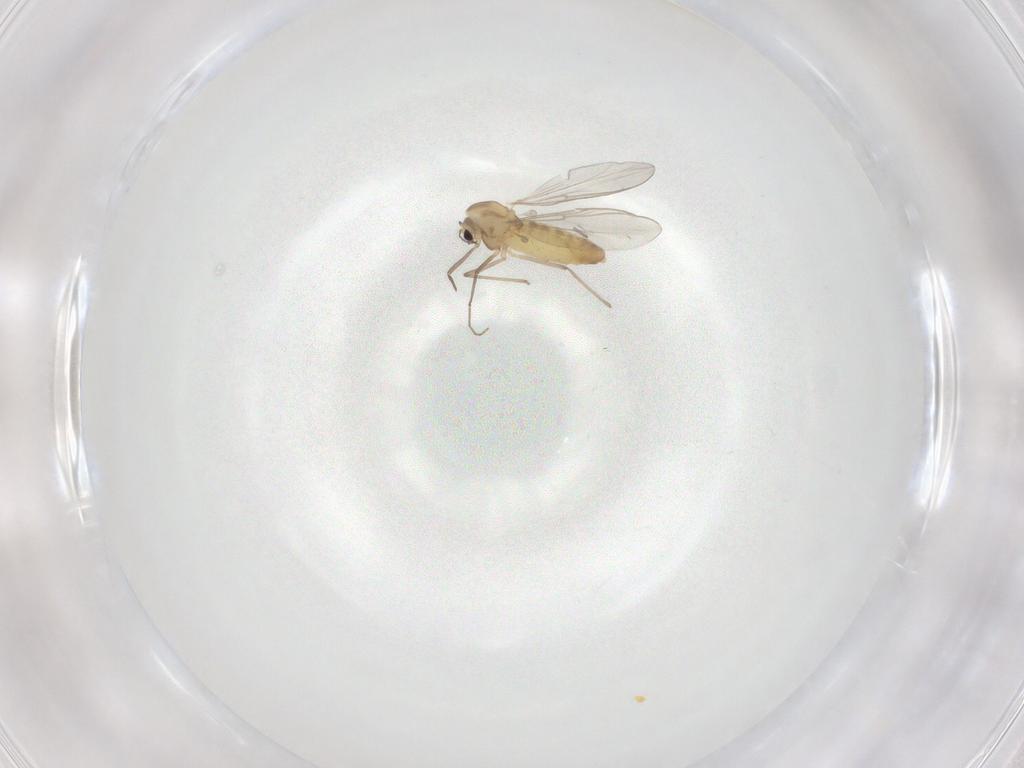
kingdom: Animalia
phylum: Arthropoda
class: Insecta
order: Diptera
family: Chironomidae
